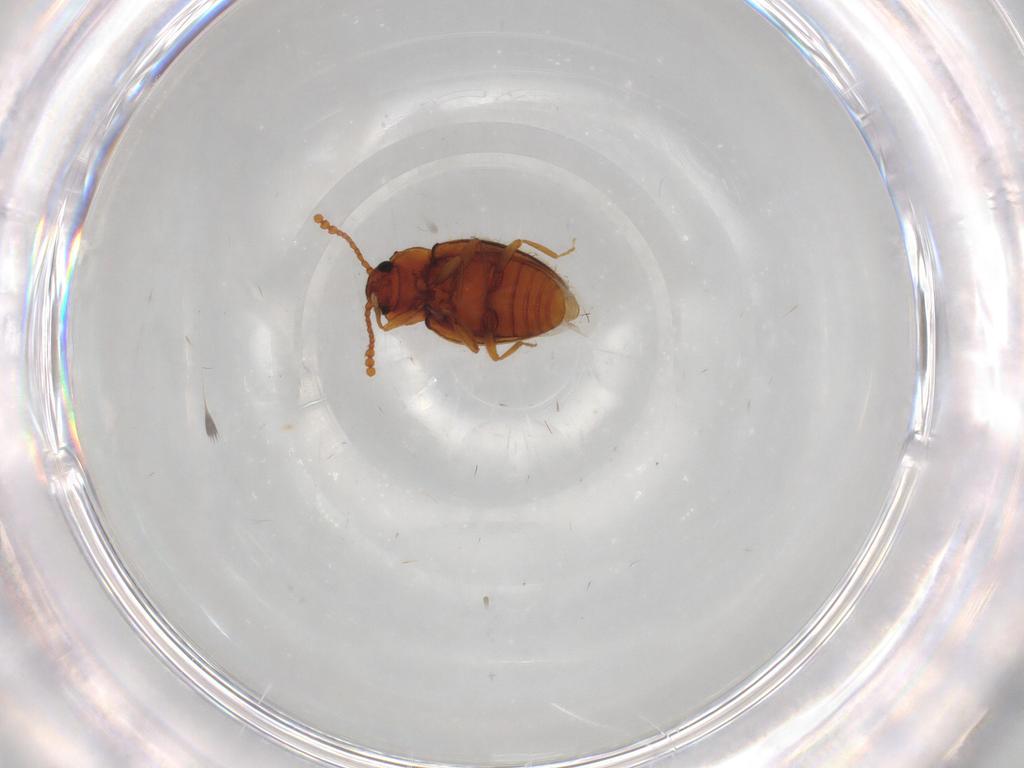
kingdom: Animalia
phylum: Arthropoda
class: Insecta
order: Coleoptera
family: Erotylidae
